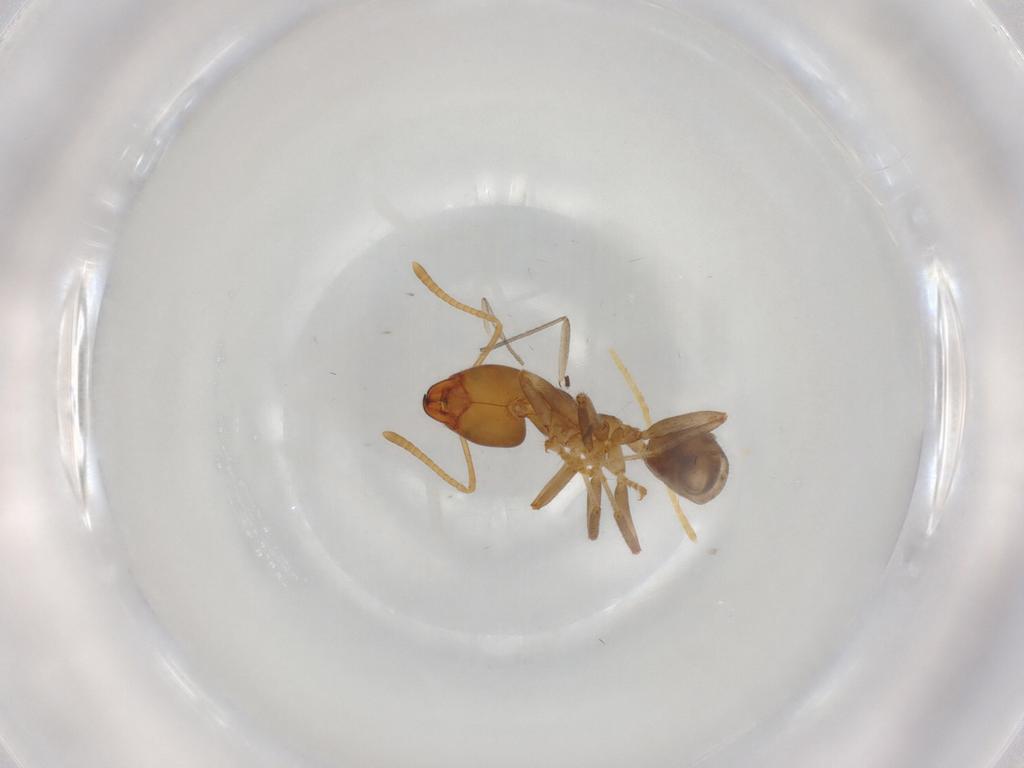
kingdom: Animalia
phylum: Arthropoda
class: Insecta
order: Hymenoptera
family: Formicidae
